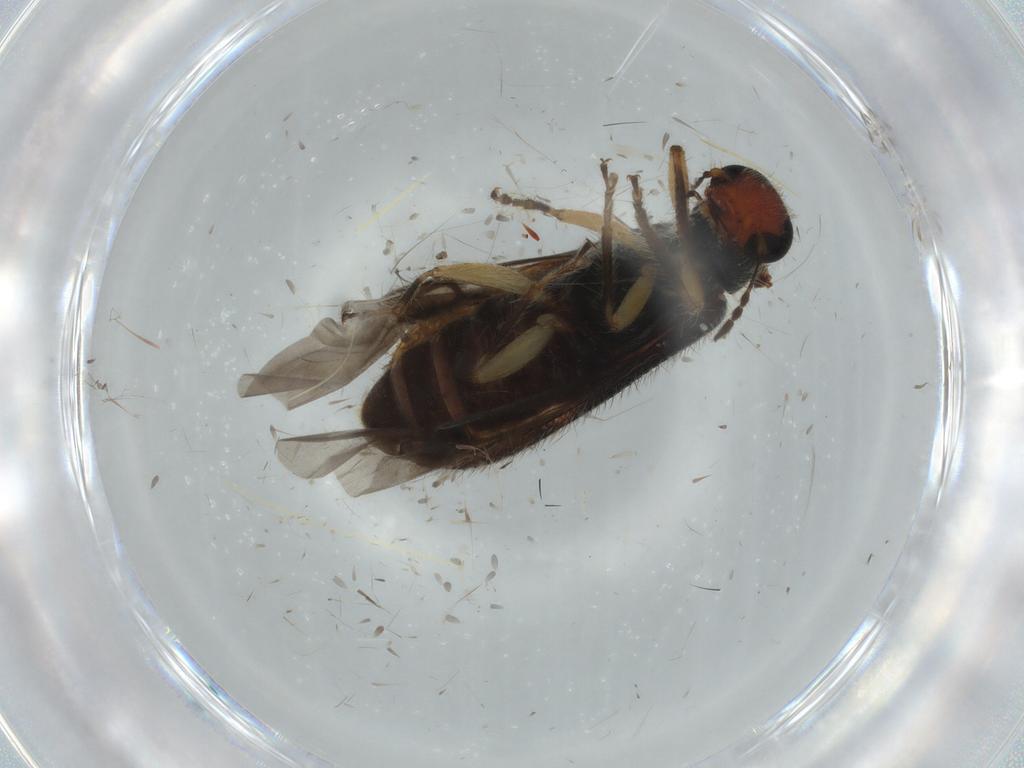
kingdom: Animalia
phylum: Arthropoda
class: Insecta
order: Coleoptera
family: Cleridae
